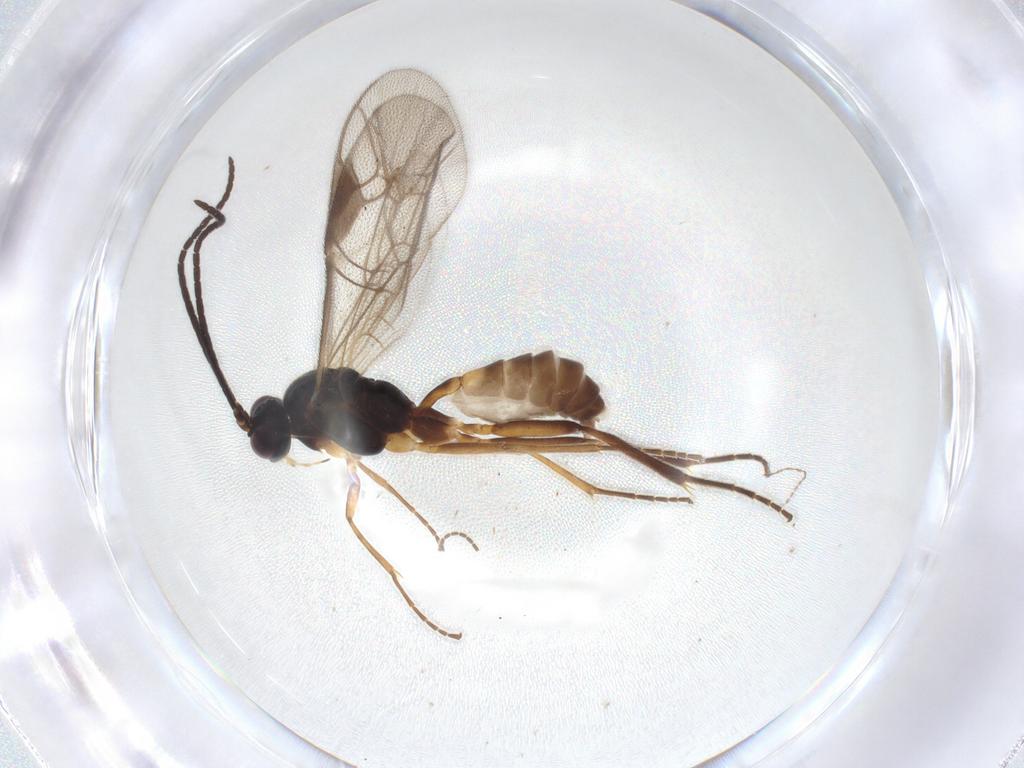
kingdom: Animalia
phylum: Arthropoda
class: Insecta
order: Hymenoptera
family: Ichneumonidae
